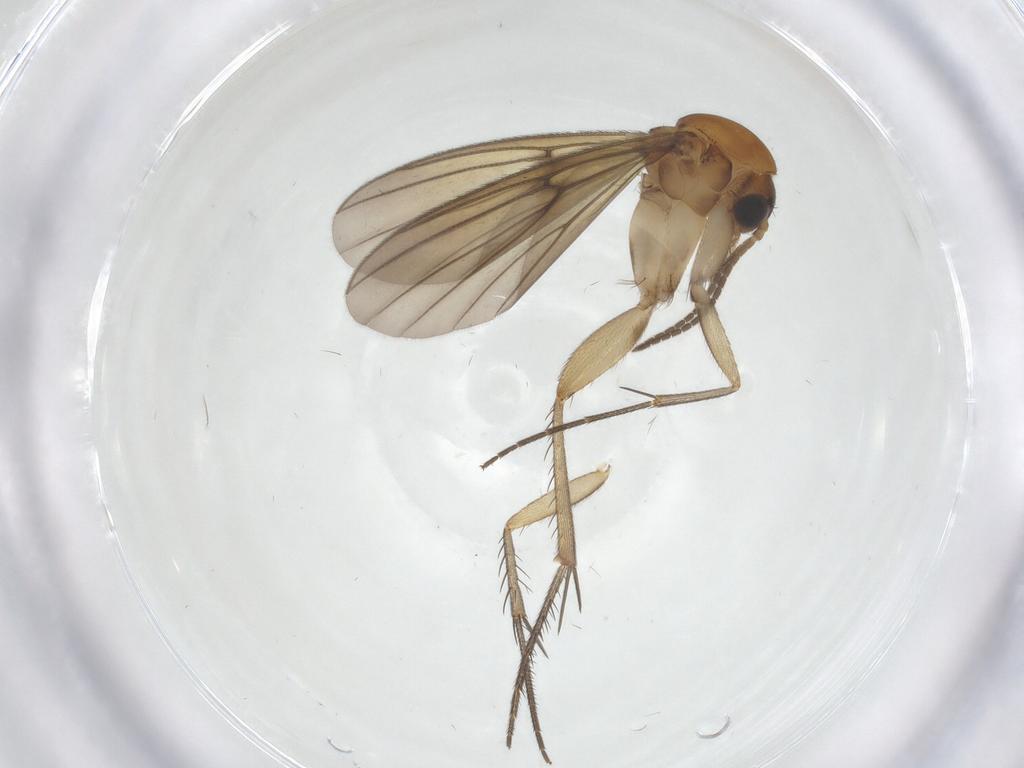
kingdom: Animalia
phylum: Arthropoda
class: Insecta
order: Diptera
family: Mycetophilidae
